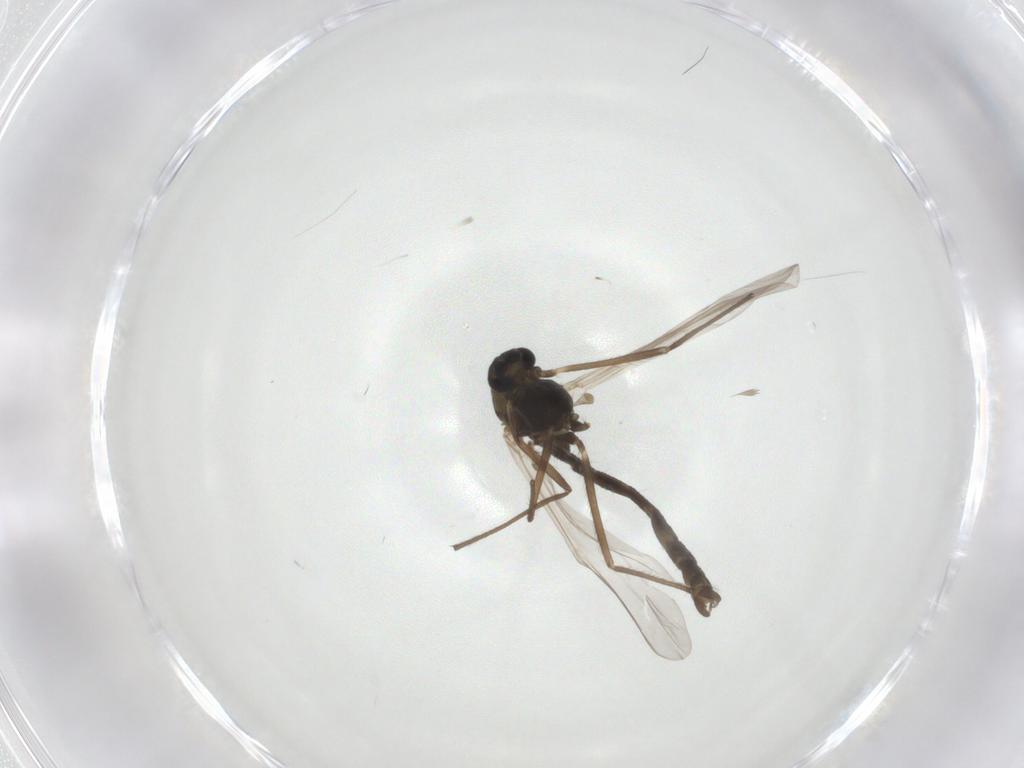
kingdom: Animalia
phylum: Arthropoda
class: Insecta
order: Diptera
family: Chironomidae
